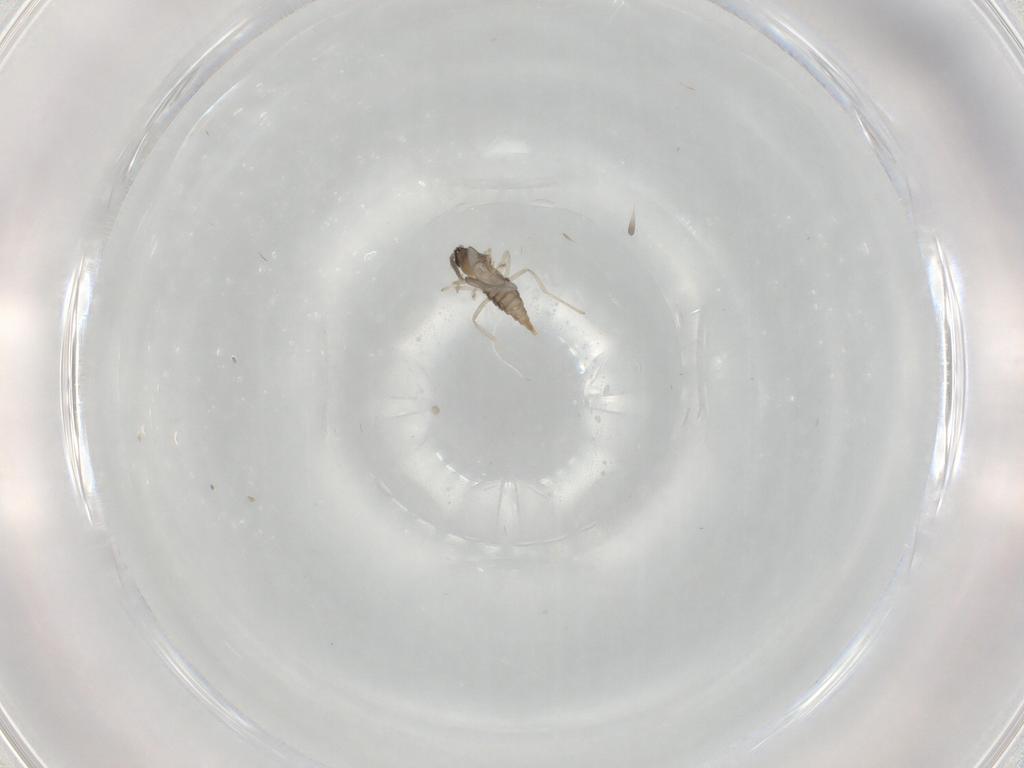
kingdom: Animalia
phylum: Arthropoda
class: Insecta
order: Diptera
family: Cecidomyiidae
